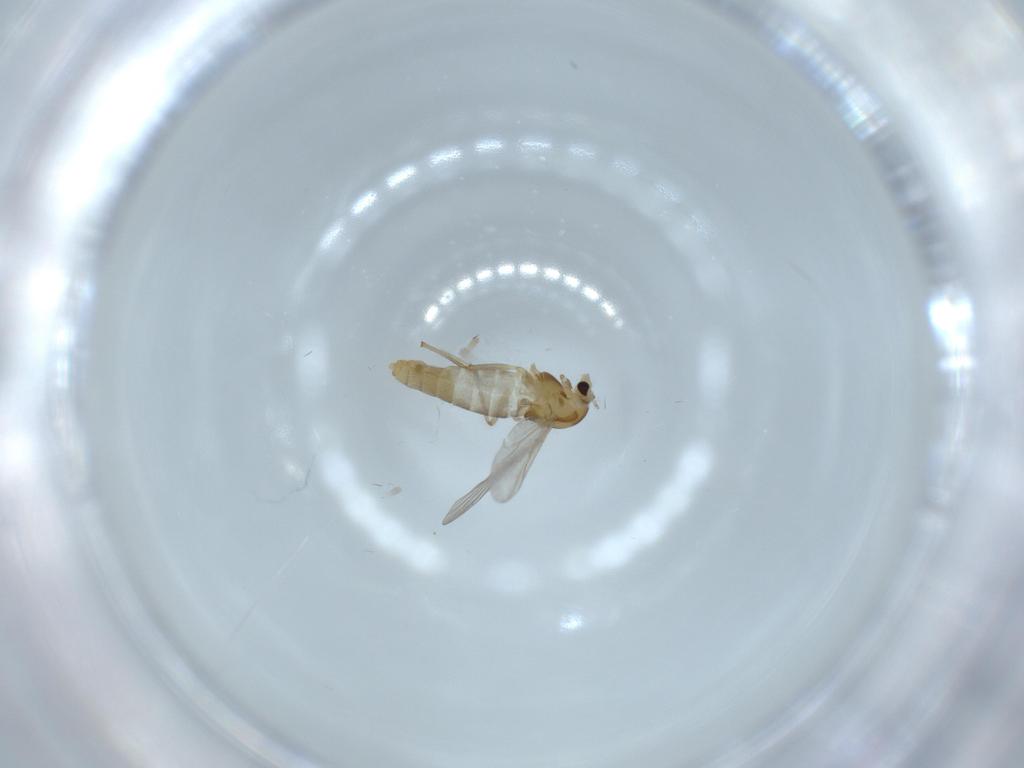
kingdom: Animalia
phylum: Arthropoda
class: Insecta
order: Diptera
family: Chironomidae
